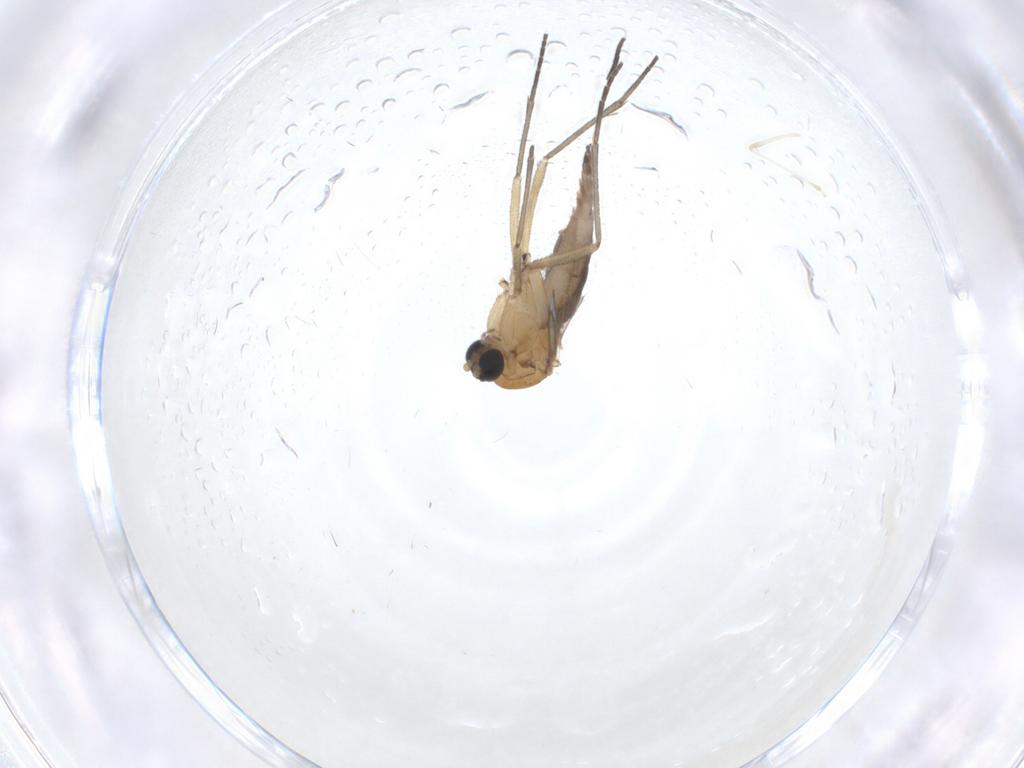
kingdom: Animalia
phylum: Arthropoda
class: Insecta
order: Diptera
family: Sciaridae
